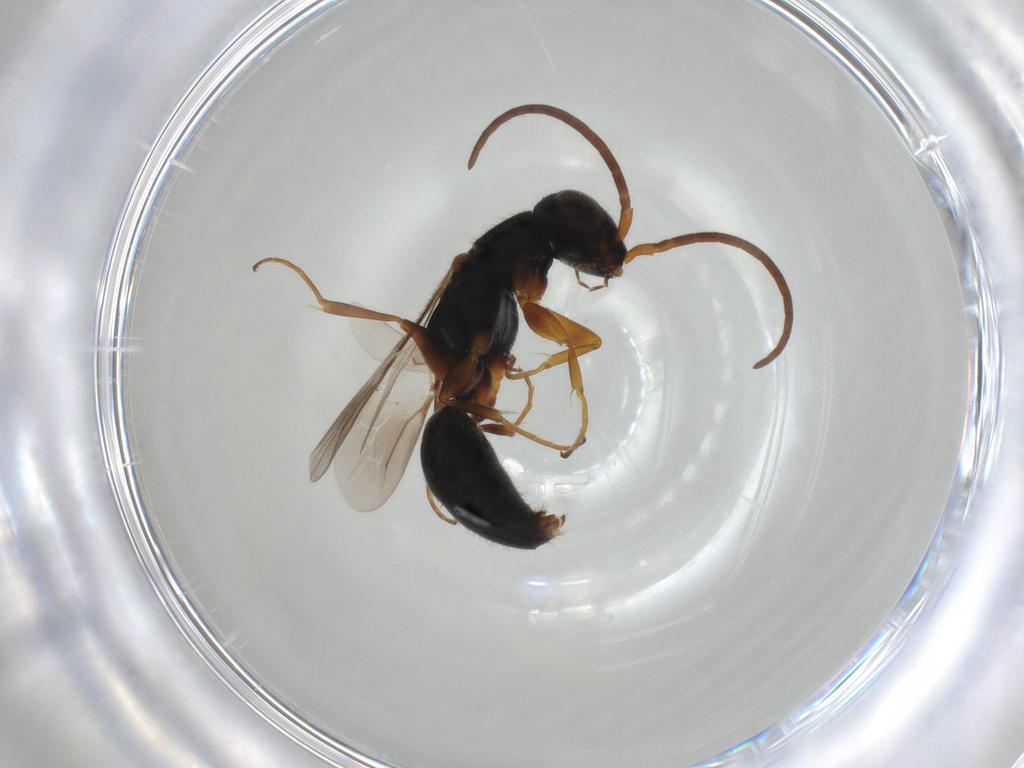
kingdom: Animalia
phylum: Arthropoda
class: Insecta
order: Hymenoptera
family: Bethylidae
